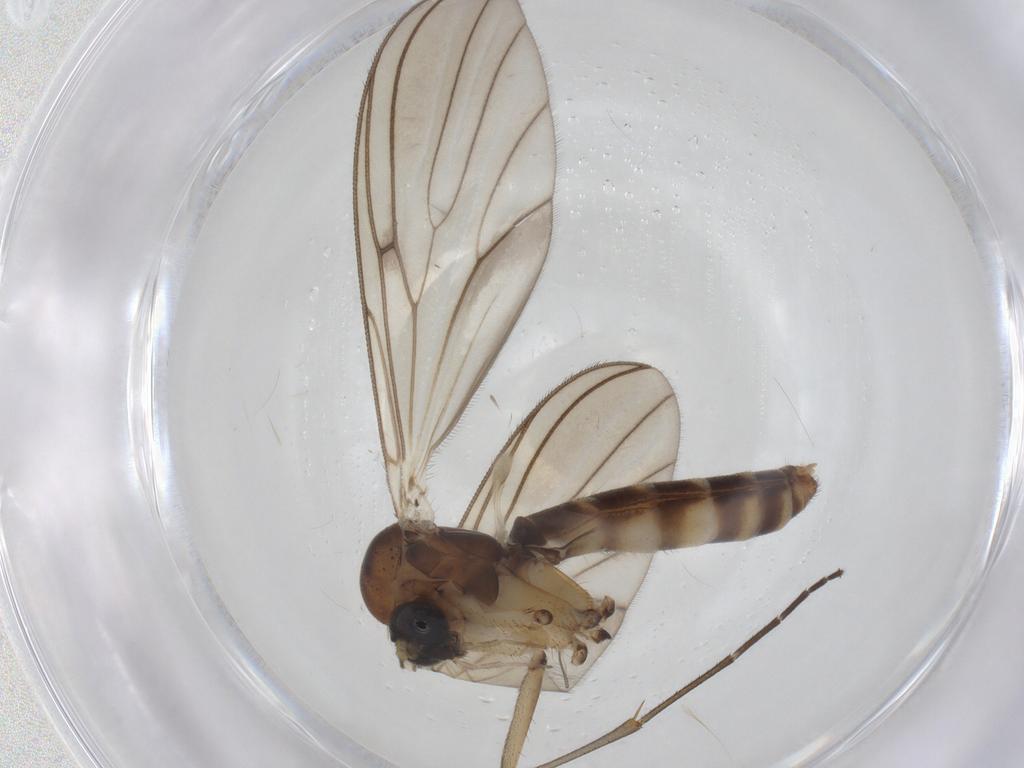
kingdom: Animalia
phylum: Arthropoda
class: Insecta
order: Diptera
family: Mycetophilidae
